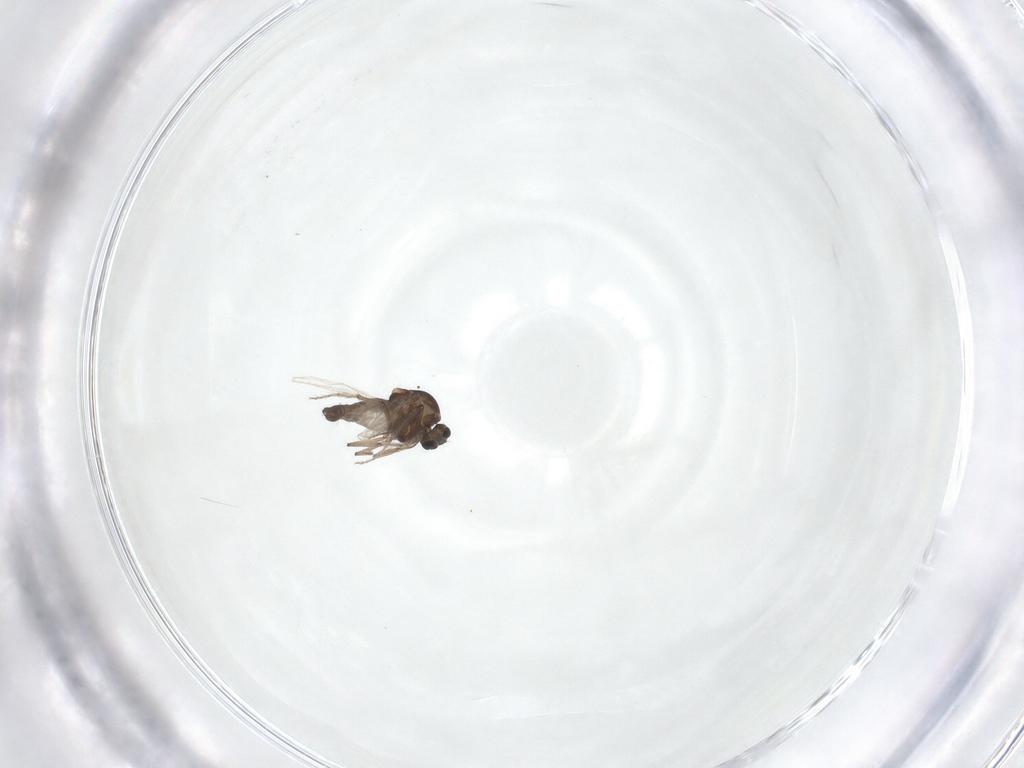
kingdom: Animalia
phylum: Arthropoda
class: Insecta
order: Diptera
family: Ceratopogonidae
